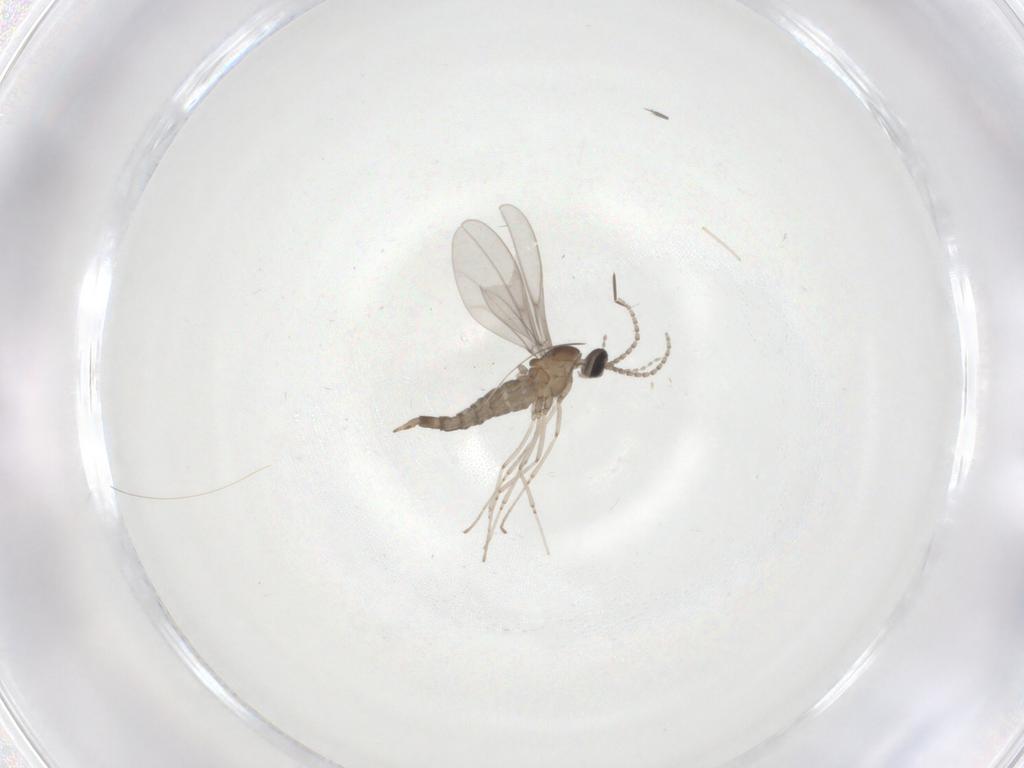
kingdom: Animalia
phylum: Arthropoda
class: Insecta
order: Diptera
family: Cecidomyiidae
